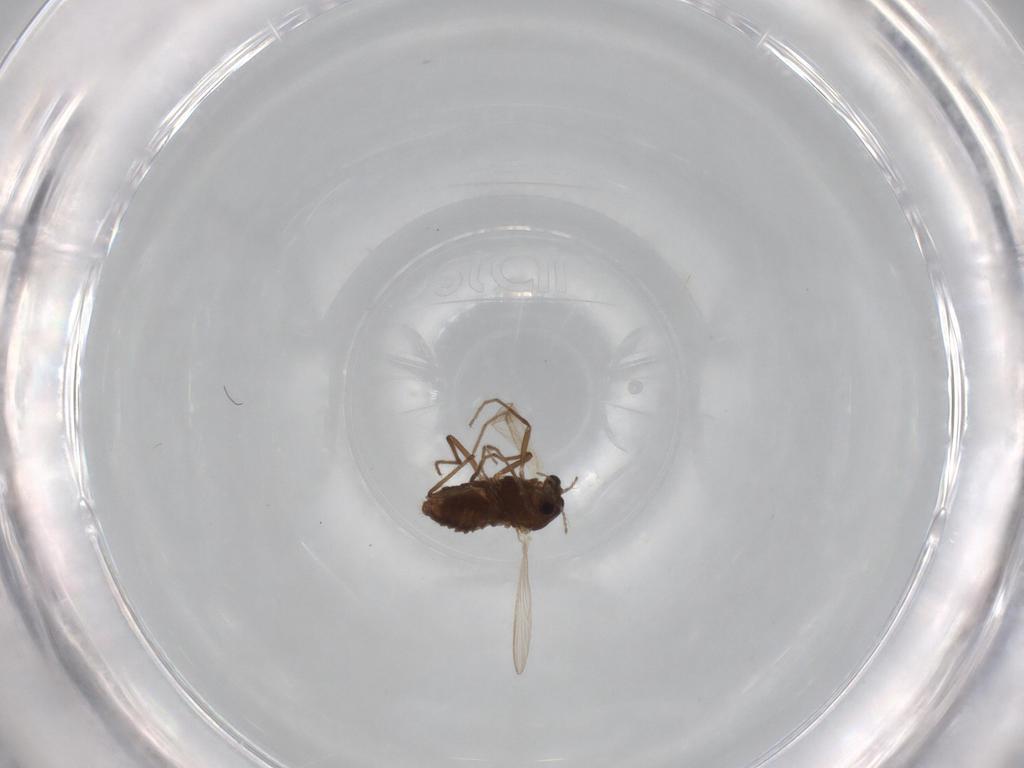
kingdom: Animalia
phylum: Arthropoda
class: Insecta
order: Diptera
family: Chironomidae
